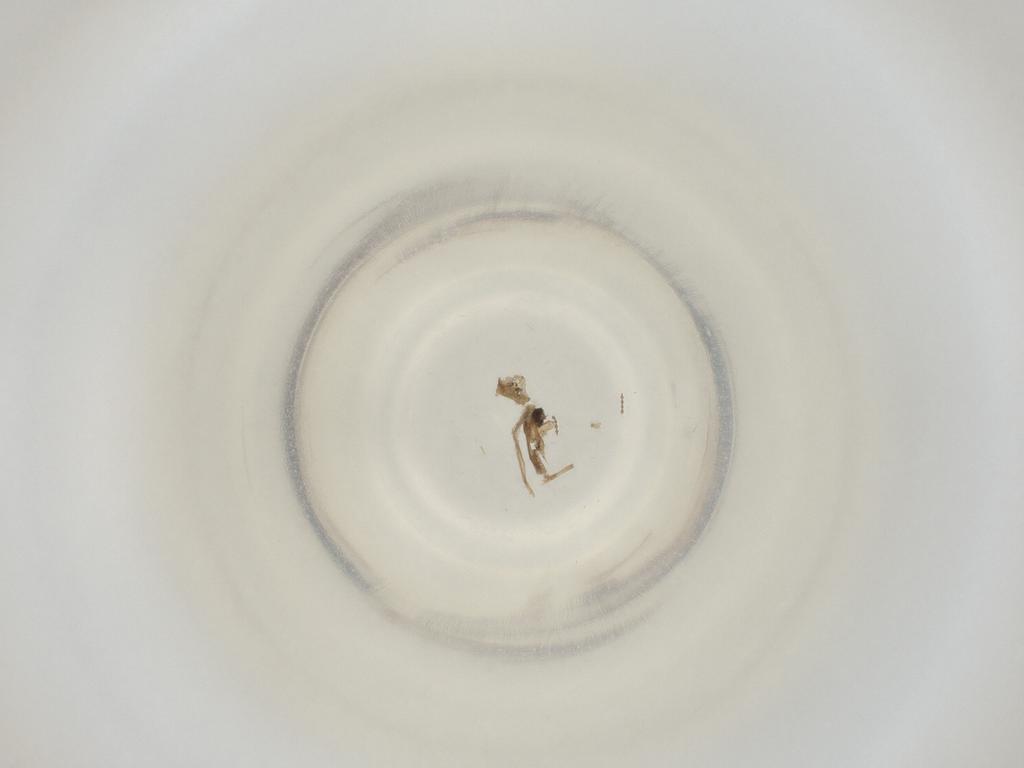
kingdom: Animalia
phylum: Arthropoda
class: Insecta
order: Diptera
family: Cecidomyiidae
